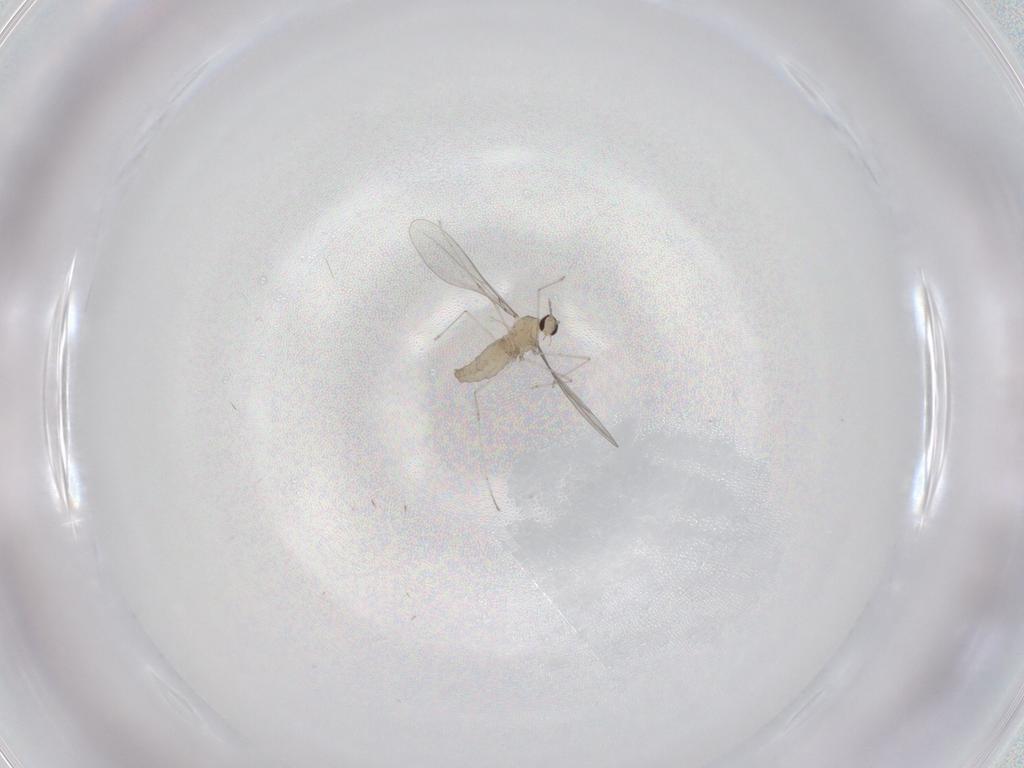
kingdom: Animalia
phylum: Arthropoda
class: Insecta
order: Diptera
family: Cecidomyiidae
